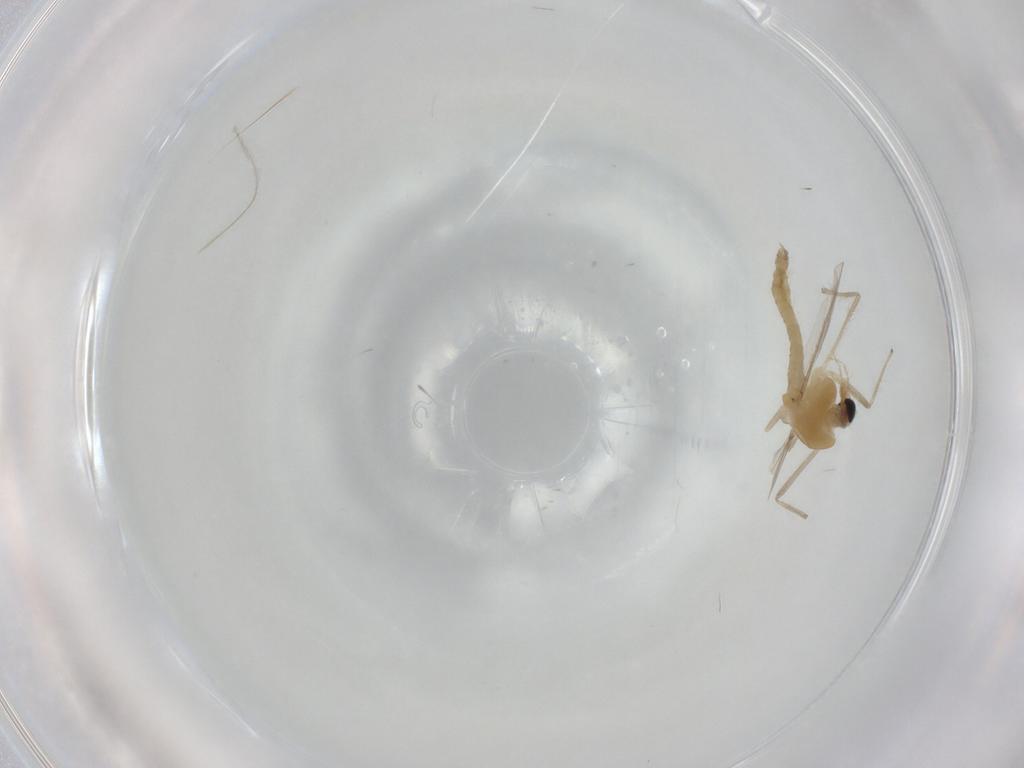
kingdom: Animalia
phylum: Arthropoda
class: Insecta
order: Diptera
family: Chironomidae
